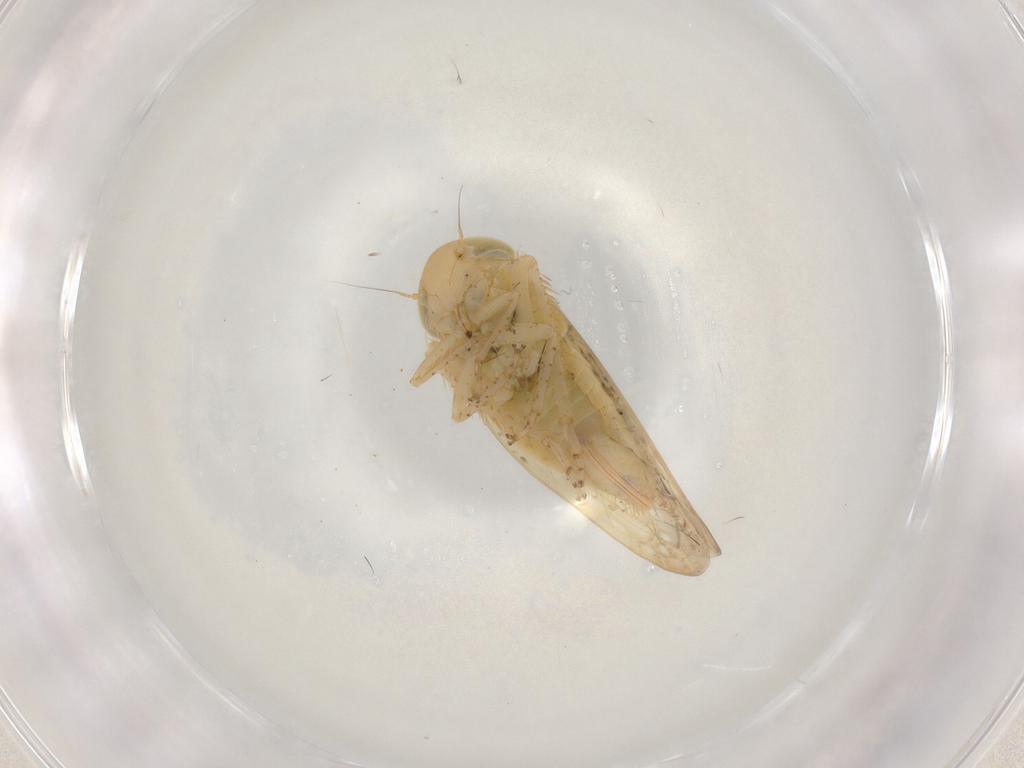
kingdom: Animalia
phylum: Arthropoda
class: Insecta
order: Hemiptera
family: Cicadellidae
